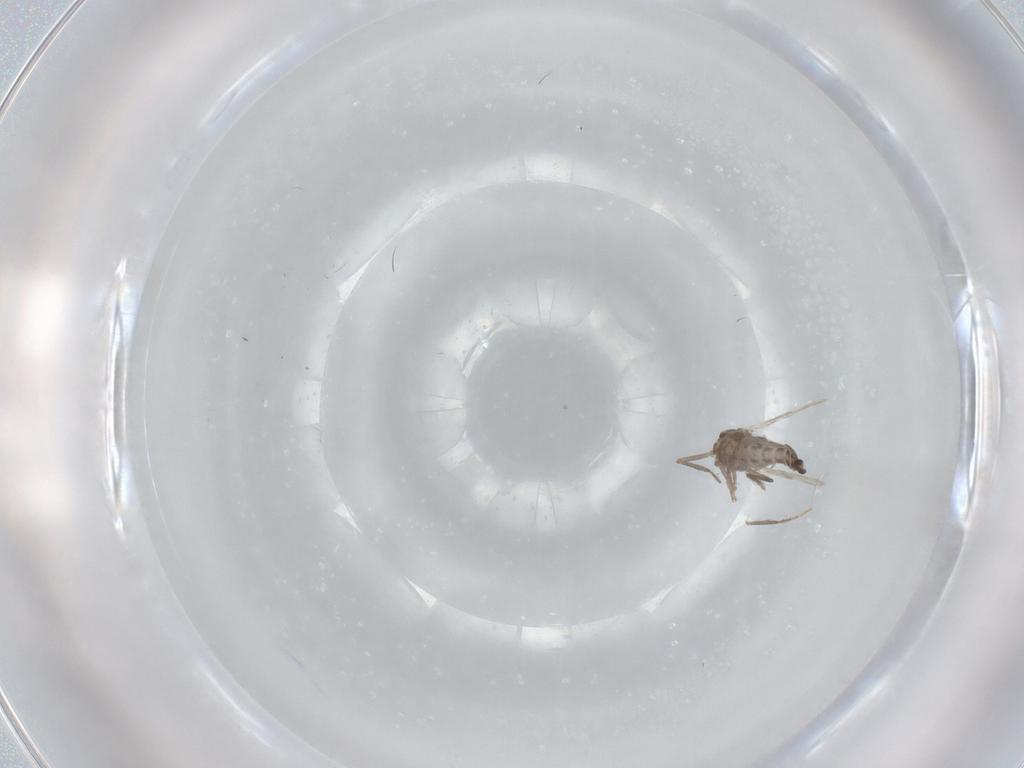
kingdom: Animalia
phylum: Arthropoda
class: Insecta
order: Diptera
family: Ceratopogonidae
